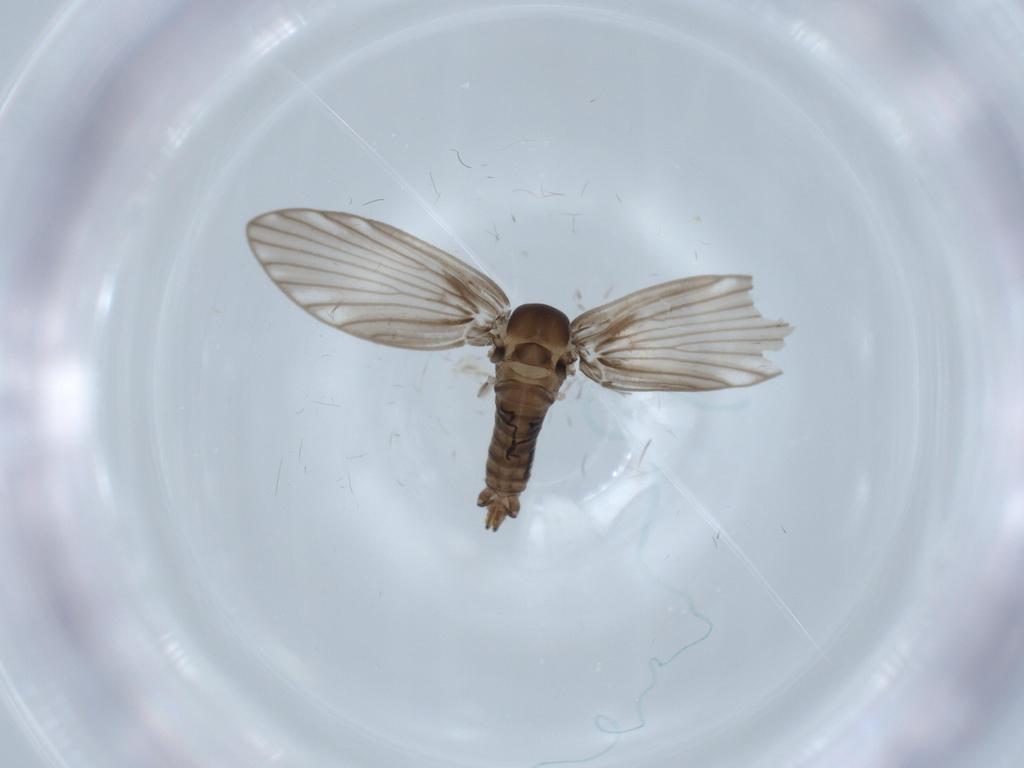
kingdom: Animalia
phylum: Arthropoda
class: Insecta
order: Diptera
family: Psychodidae
